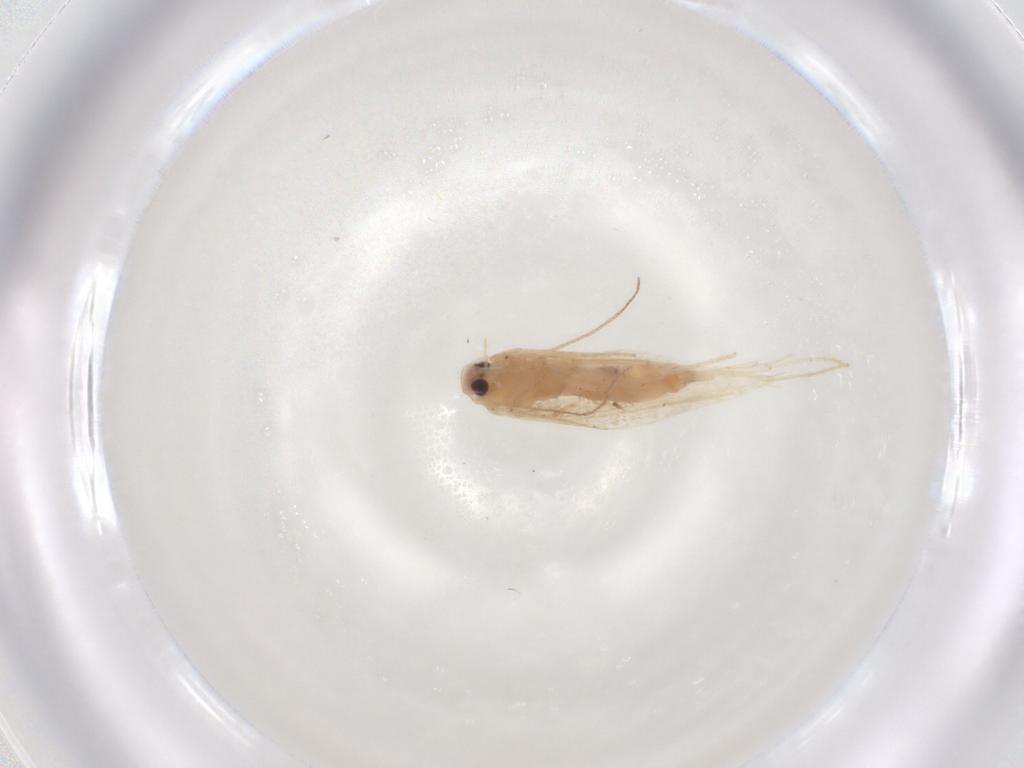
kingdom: Animalia
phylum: Arthropoda
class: Insecta
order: Lepidoptera
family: Coleophoridae
